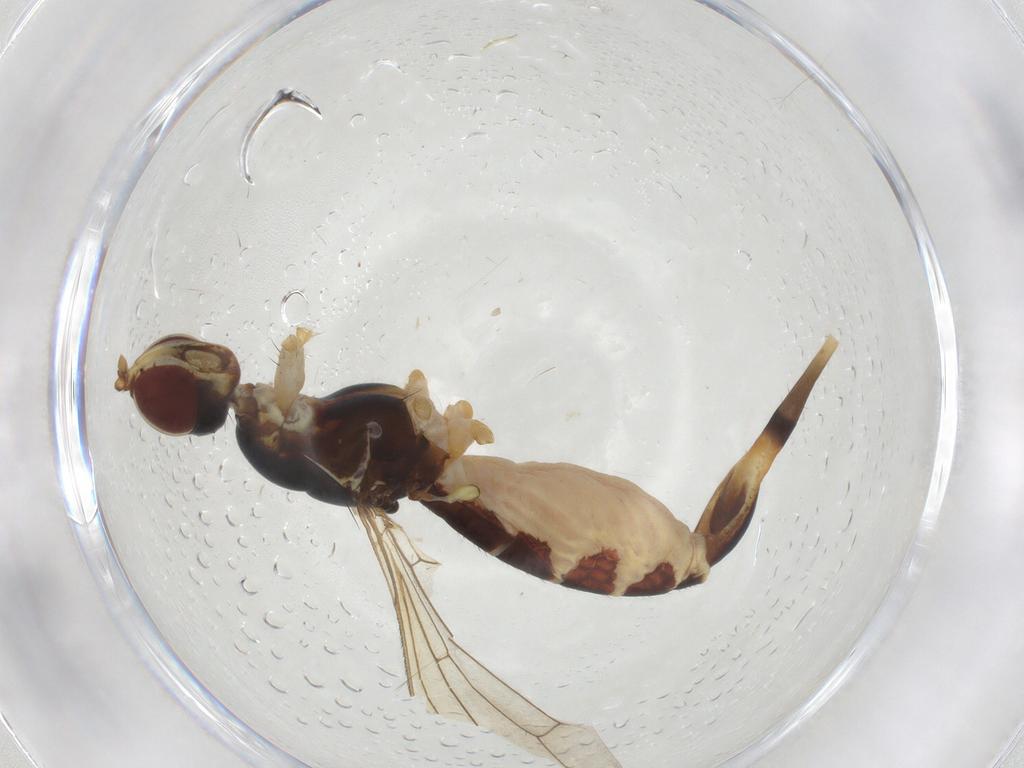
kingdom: Animalia
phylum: Arthropoda
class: Insecta
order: Diptera
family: Micropezidae
